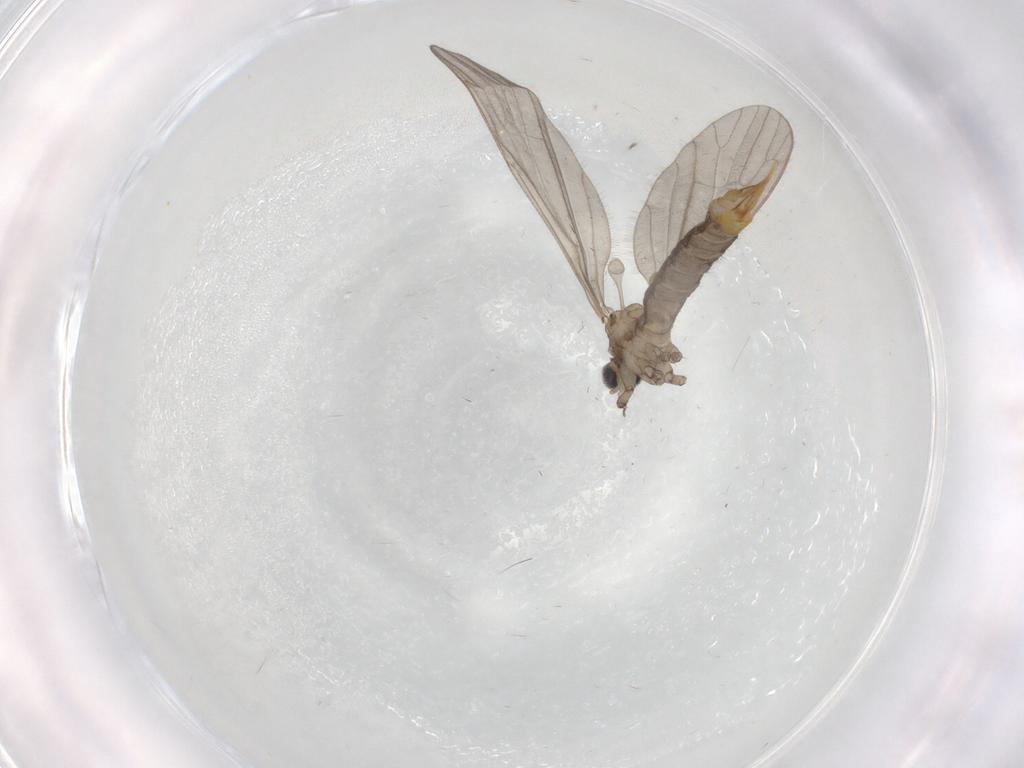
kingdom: Animalia
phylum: Arthropoda
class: Insecta
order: Diptera
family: Limoniidae
